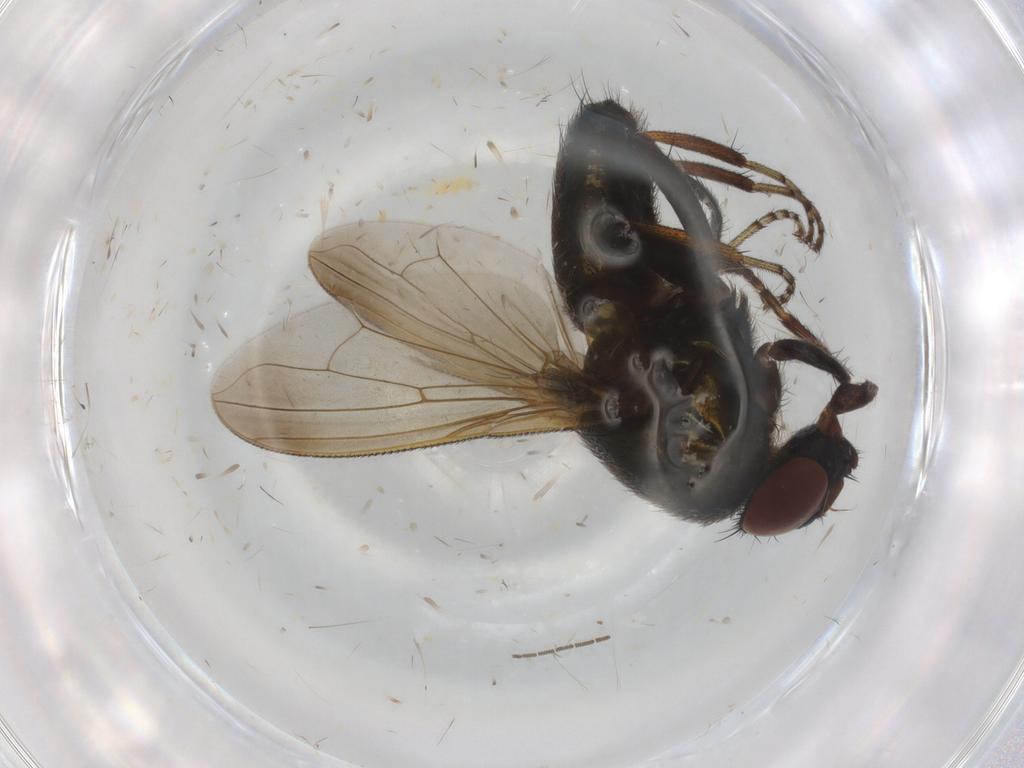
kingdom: Animalia
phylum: Arthropoda
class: Insecta
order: Diptera
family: Calliphoridae
